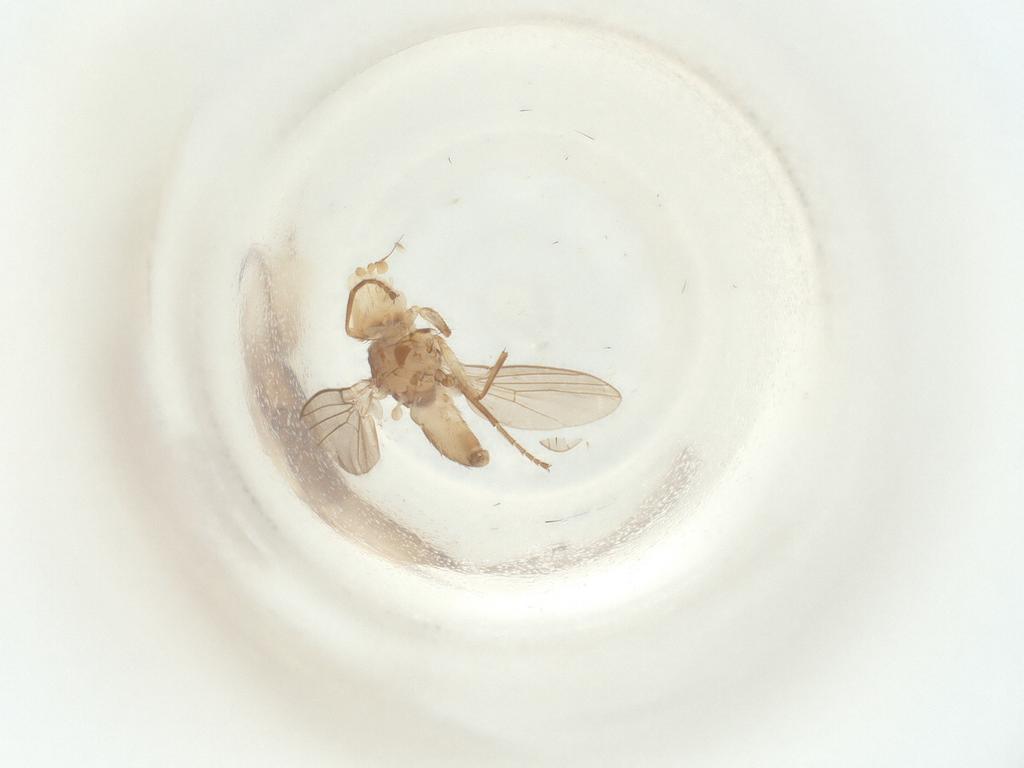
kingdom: Animalia
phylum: Arthropoda
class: Insecta
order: Diptera
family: Agromyzidae
